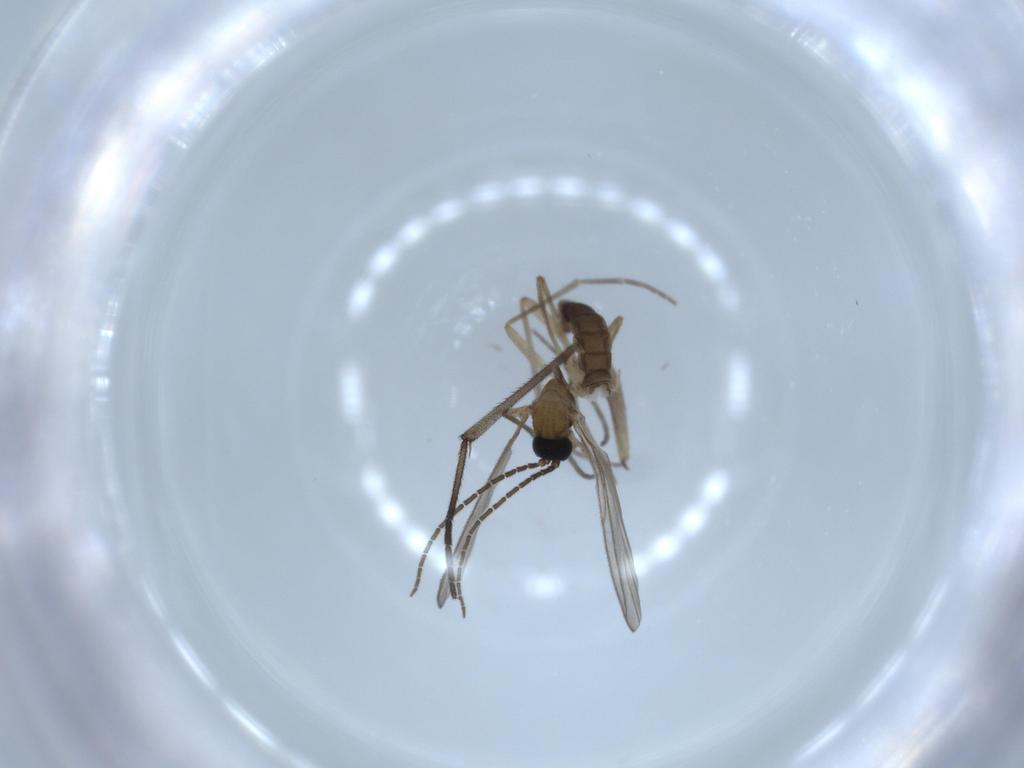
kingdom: Animalia
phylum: Arthropoda
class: Insecta
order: Diptera
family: Sciaridae
